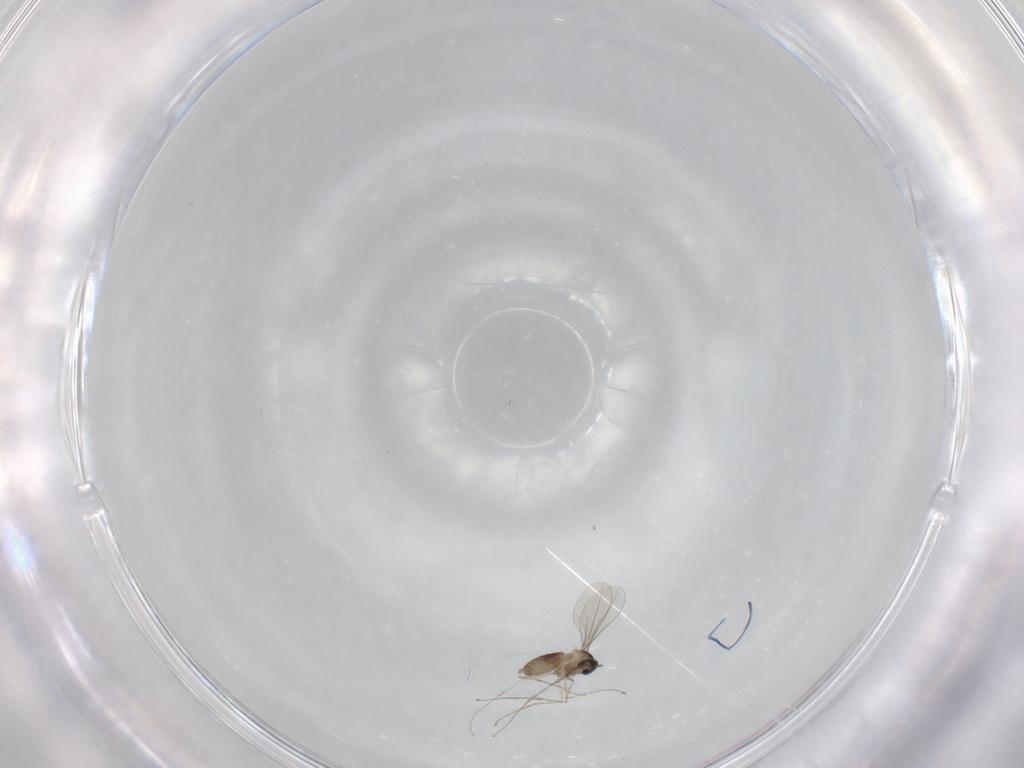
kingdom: Animalia
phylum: Arthropoda
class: Insecta
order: Diptera
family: Cecidomyiidae
